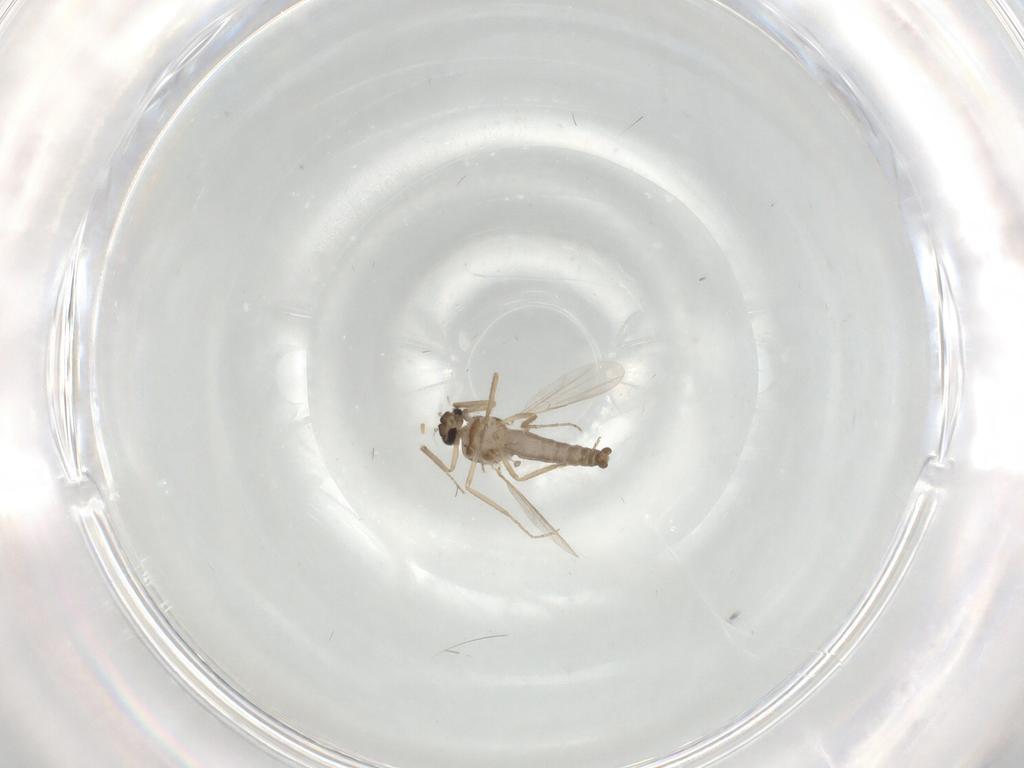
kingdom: Animalia
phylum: Arthropoda
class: Insecta
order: Diptera
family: Ceratopogonidae
